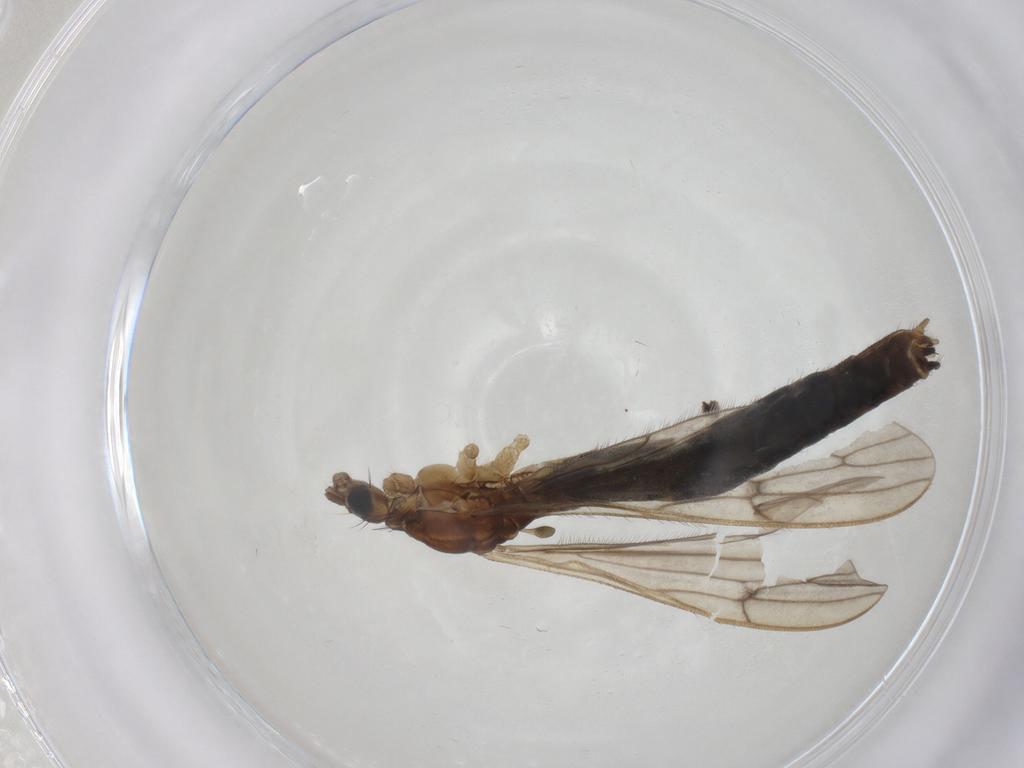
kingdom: Animalia
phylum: Arthropoda
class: Insecta
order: Diptera
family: Limoniidae
